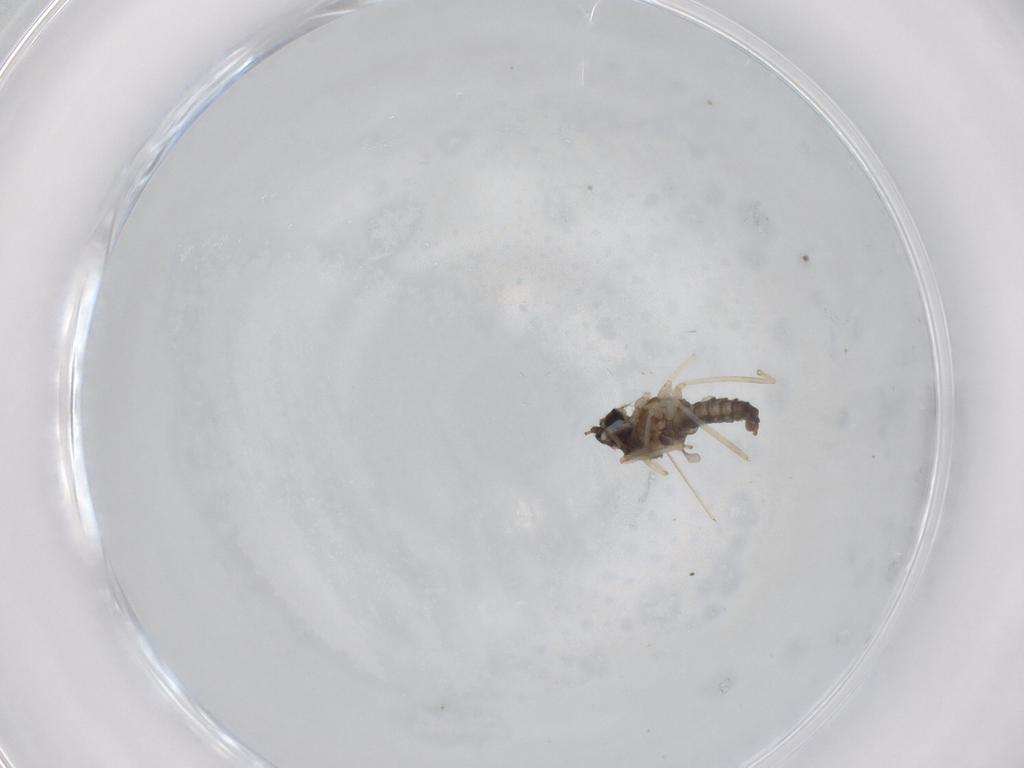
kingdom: Animalia
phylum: Arthropoda
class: Insecta
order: Diptera
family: Cecidomyiidae
